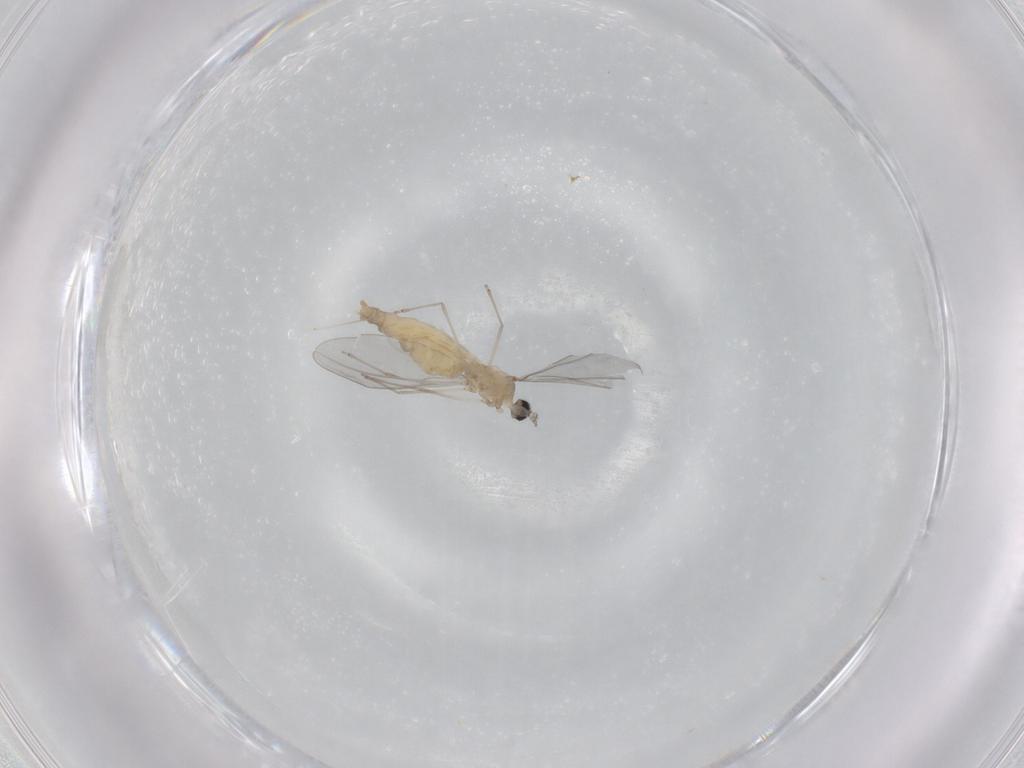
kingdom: Animalia
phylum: Arthropoda
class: Insecta
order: Diptera
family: Cecidomyiidae
